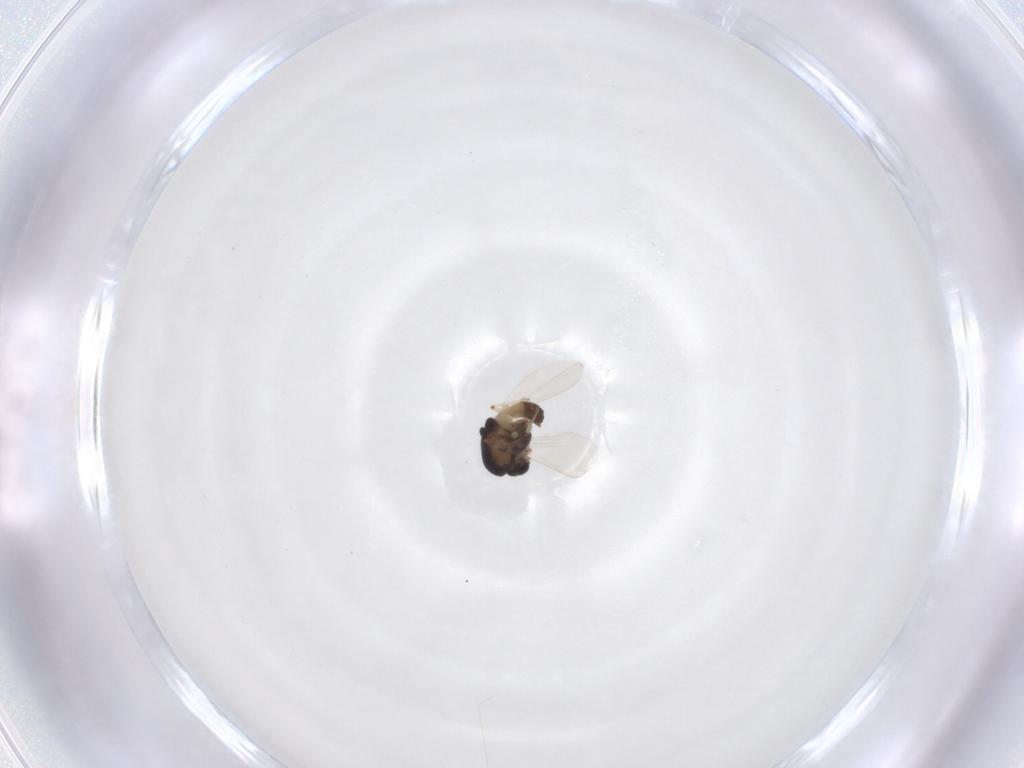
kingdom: Animalia
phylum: Arthropoda
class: Insecta
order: Diptera
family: Chironomidae
